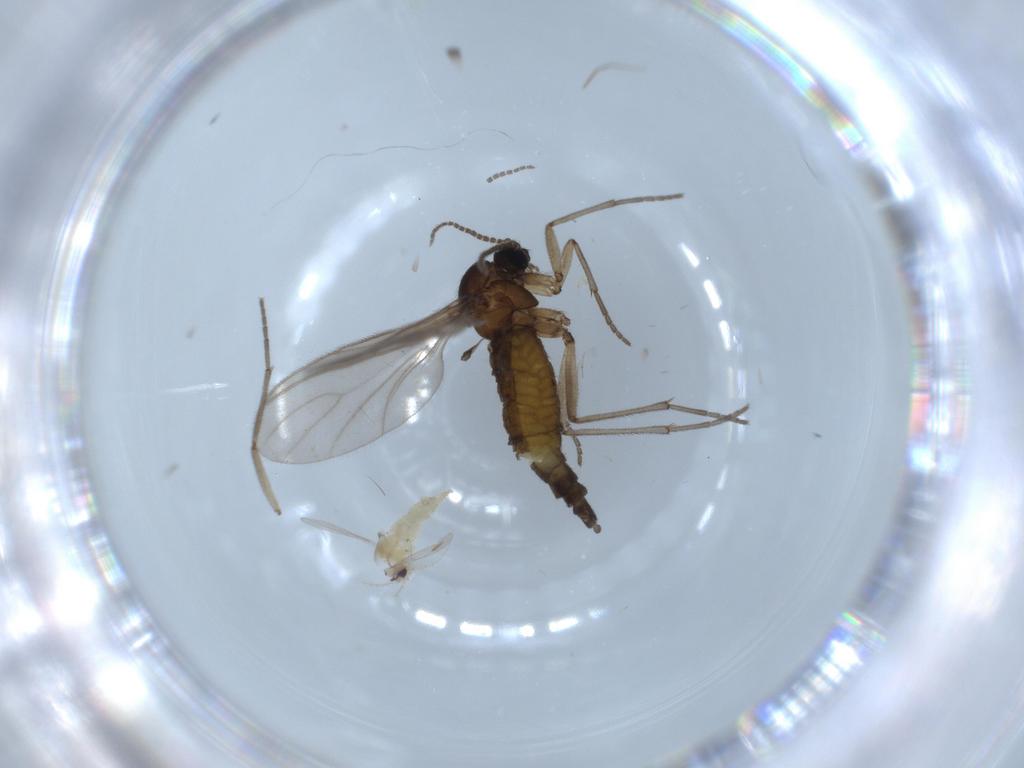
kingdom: Animalia
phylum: Arthropoda
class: Insecta
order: Diptera
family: Sciaridae
